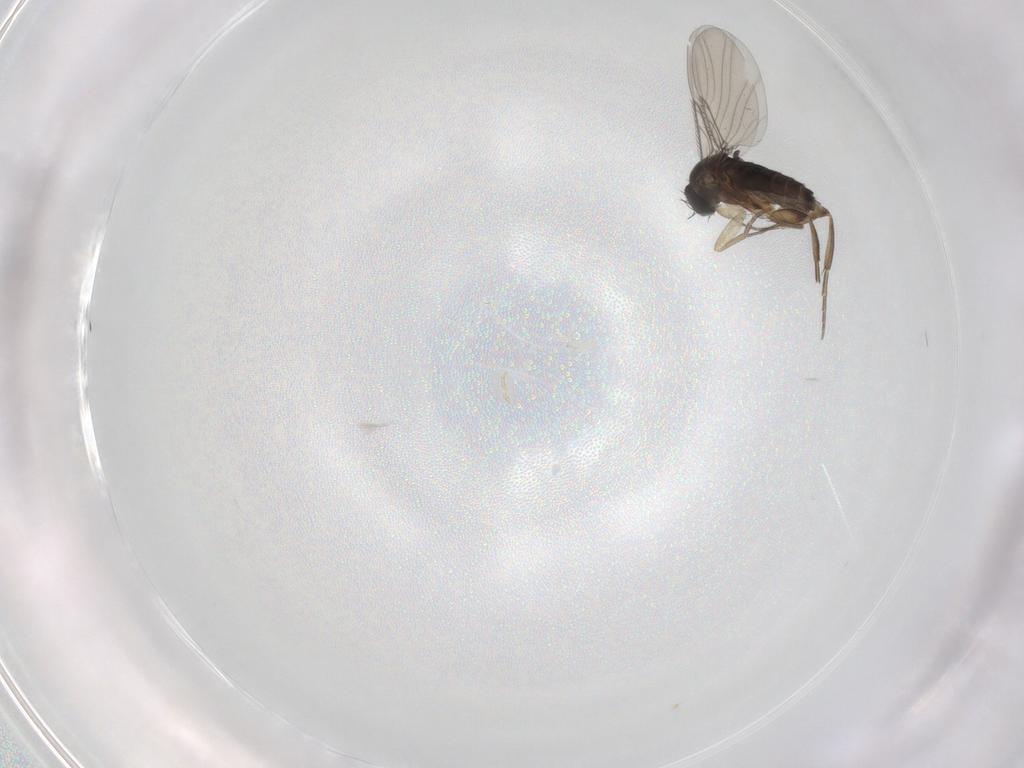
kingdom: Animalia
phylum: Arthropoda
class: Insecta
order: Diptera
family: Phoridae
